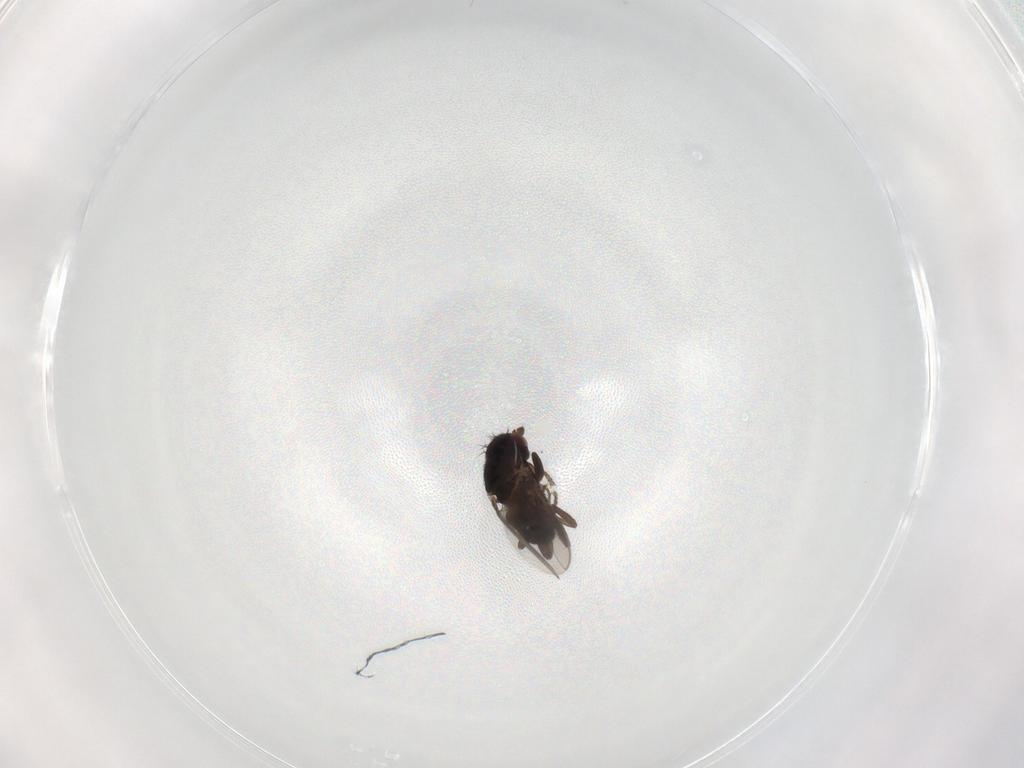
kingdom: Animalia
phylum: Arthropoda
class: Insecta
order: Diptera
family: Sphaeroceridae
